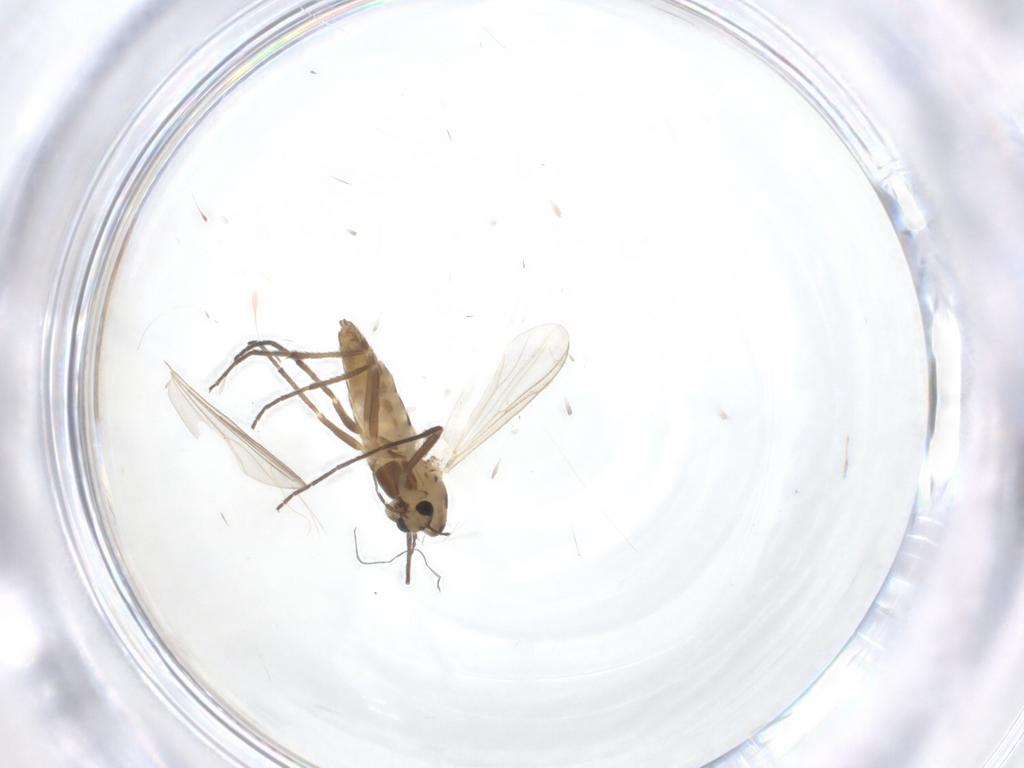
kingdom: Animalia
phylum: Arthropoda
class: Insecta
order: Diptera
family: Chironomidae
